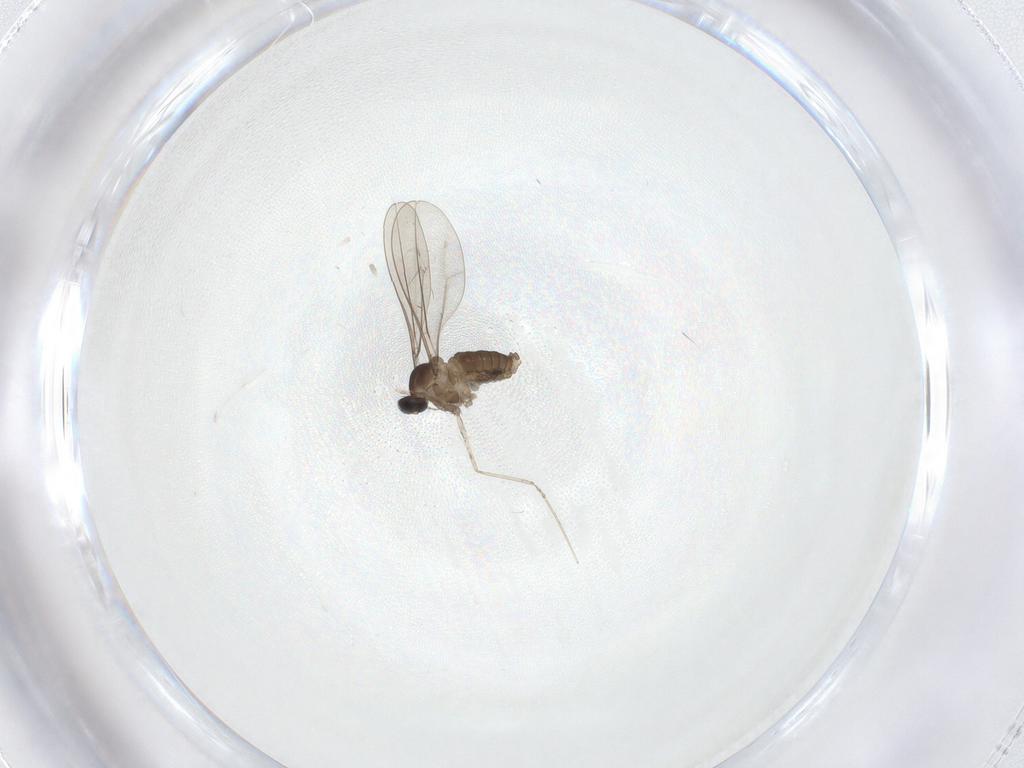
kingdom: Animalia
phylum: Arthropoda
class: Insecta
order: Diptera
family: Cecidomyiidae
